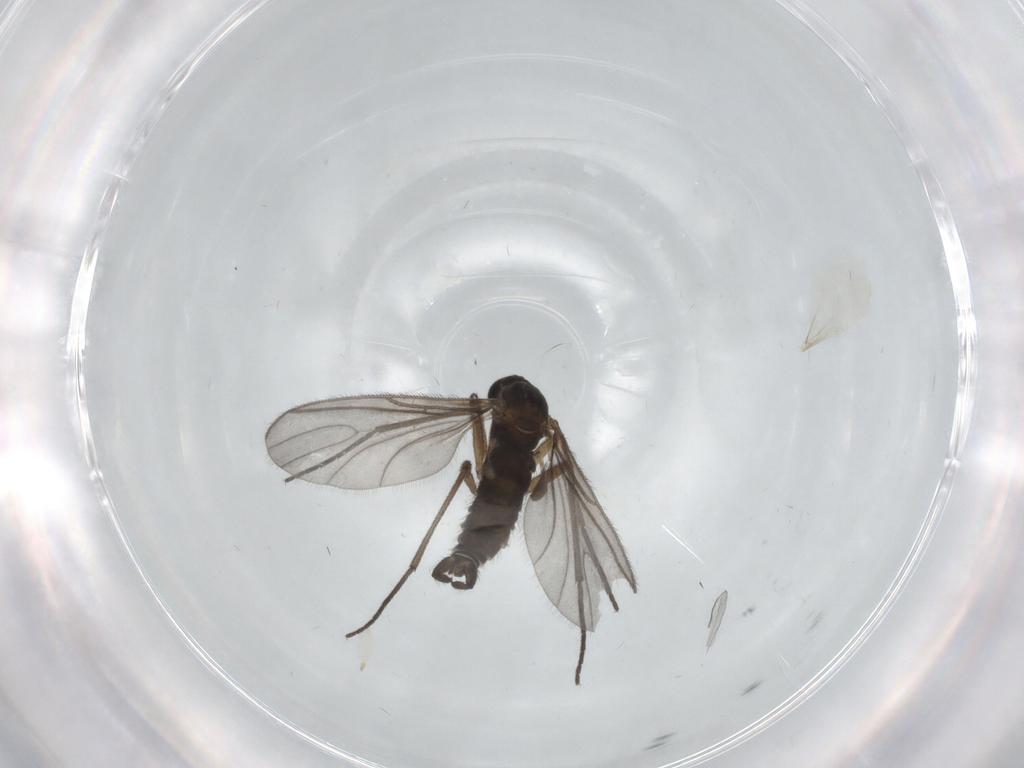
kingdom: Animalia
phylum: Arthropoda
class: Insecta
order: Diptera
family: Sciaridae
